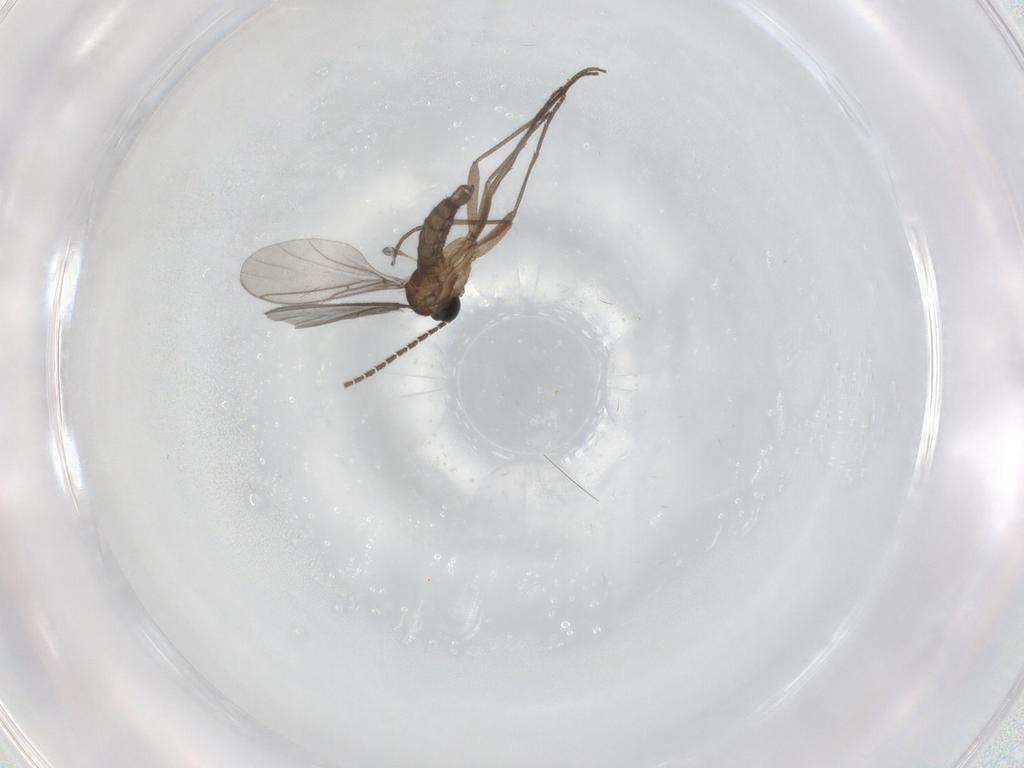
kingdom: Animalia
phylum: Arthropoda
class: Insecta
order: Diptera
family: Sciaridae
